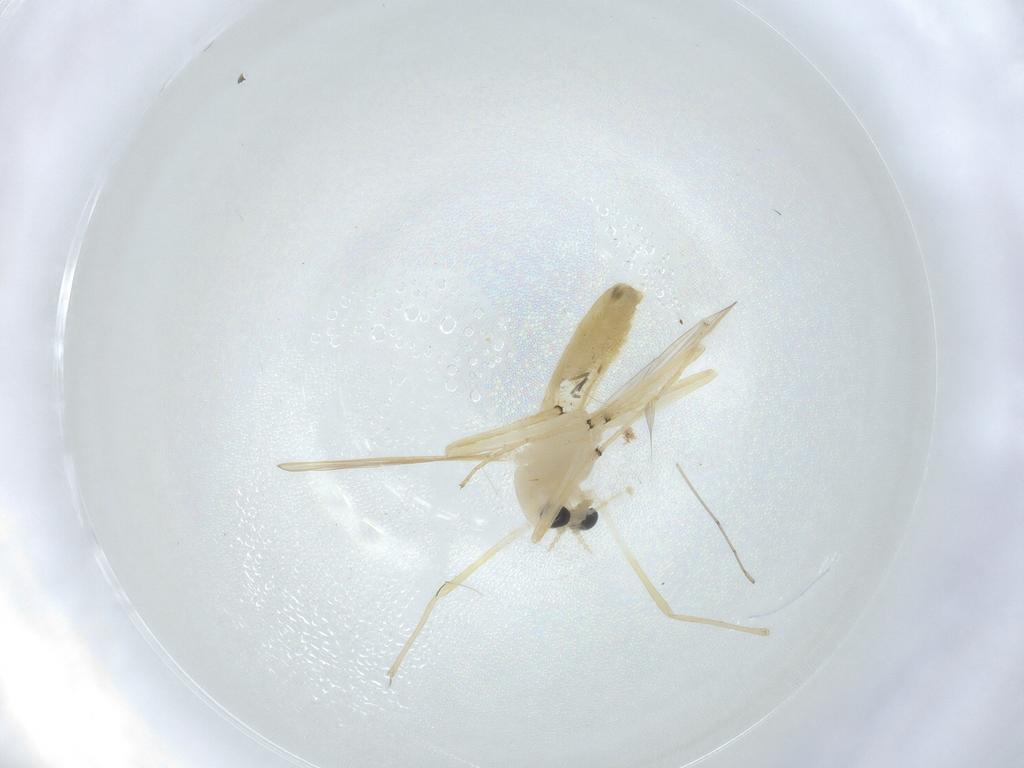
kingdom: Animalia
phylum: Arthropoda
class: Insecta
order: Diptera
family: Chironomidae
